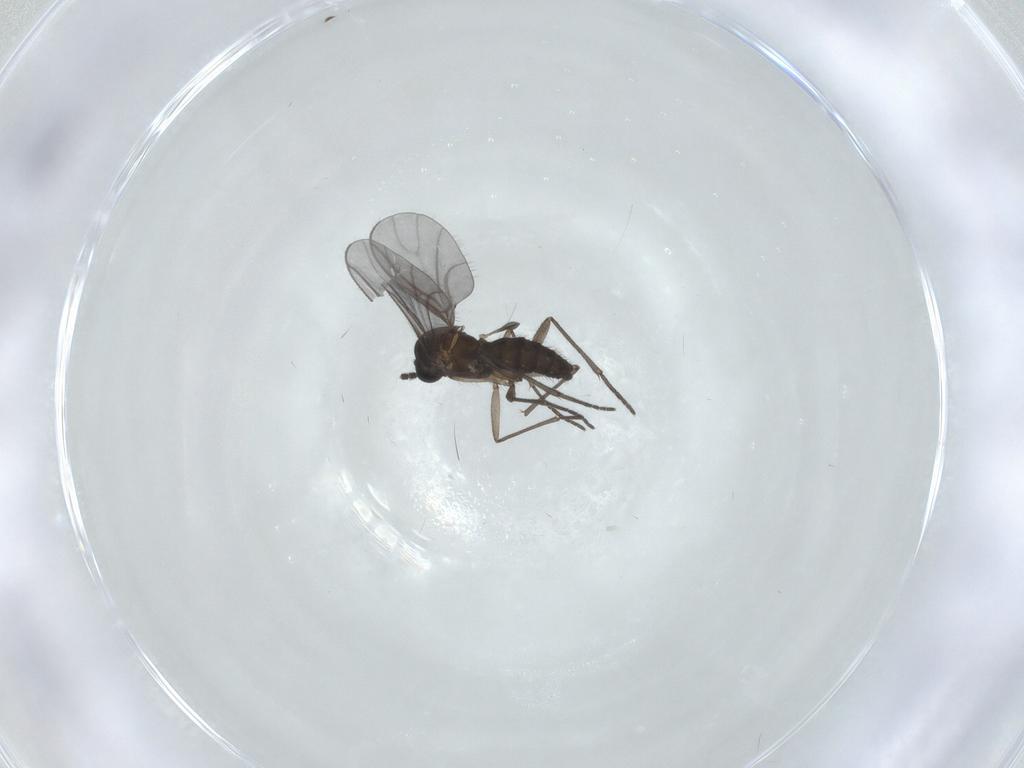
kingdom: Animalia
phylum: Arthropoda
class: Insecta
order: Diptera
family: Sciaridae
